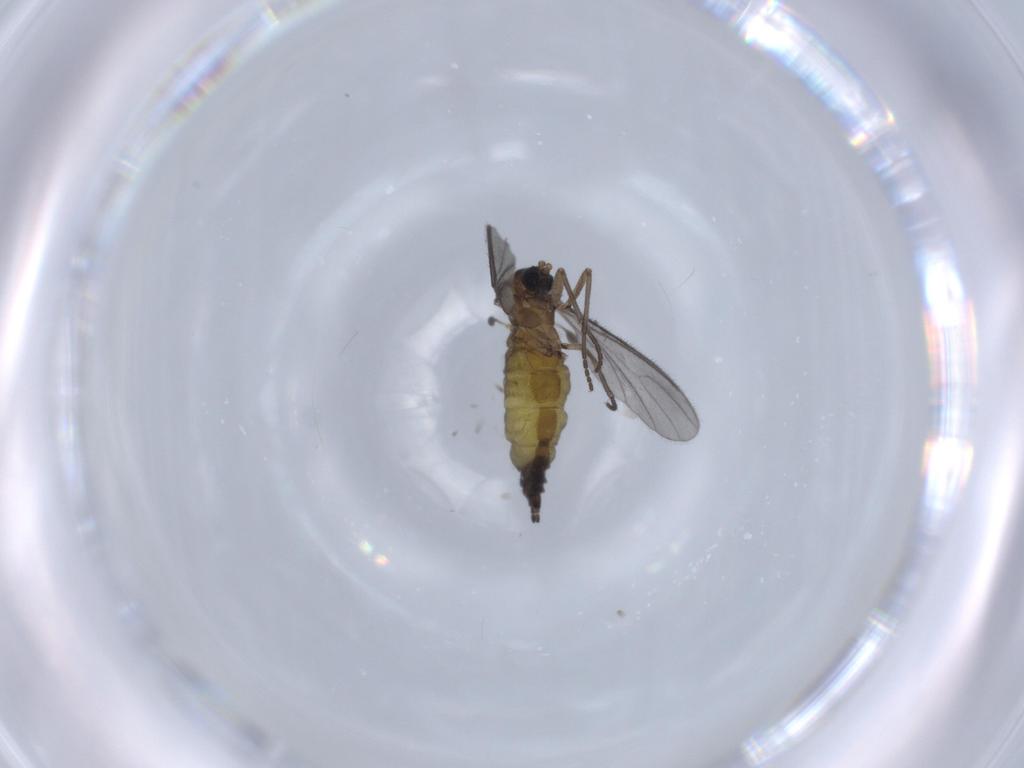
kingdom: Animalia
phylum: Arthropoda
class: Insecta
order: Diptera
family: Sciaridae
